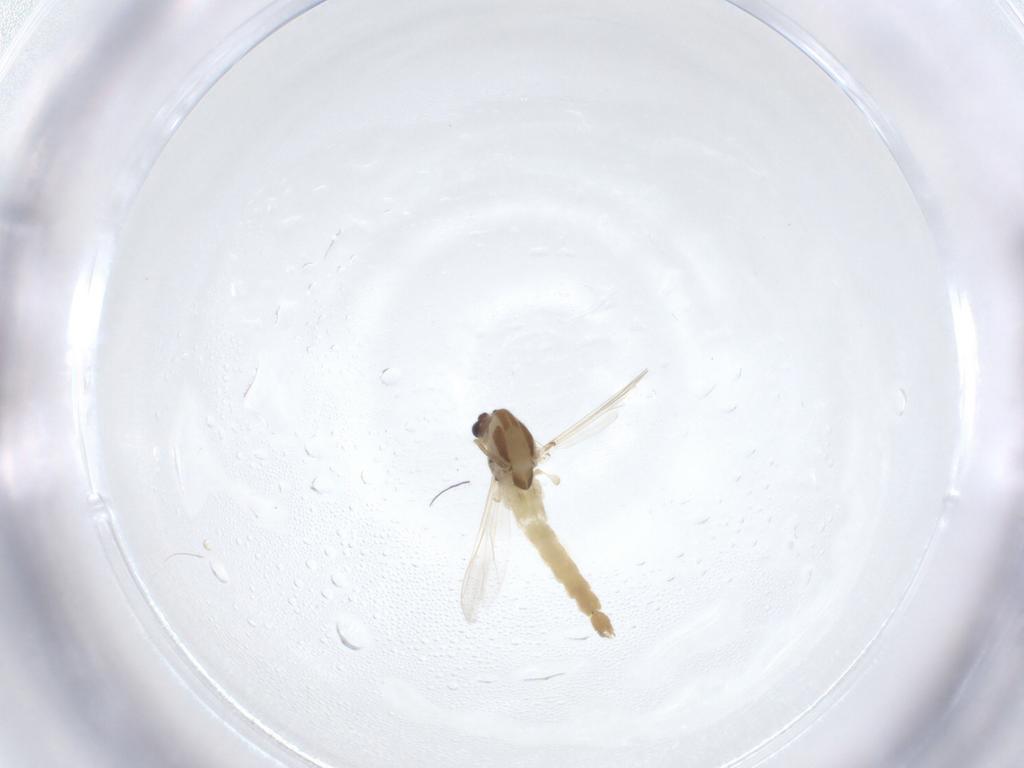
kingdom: Animalia
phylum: Arthropoda
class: Insecta
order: Diptera
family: Chironomidae
